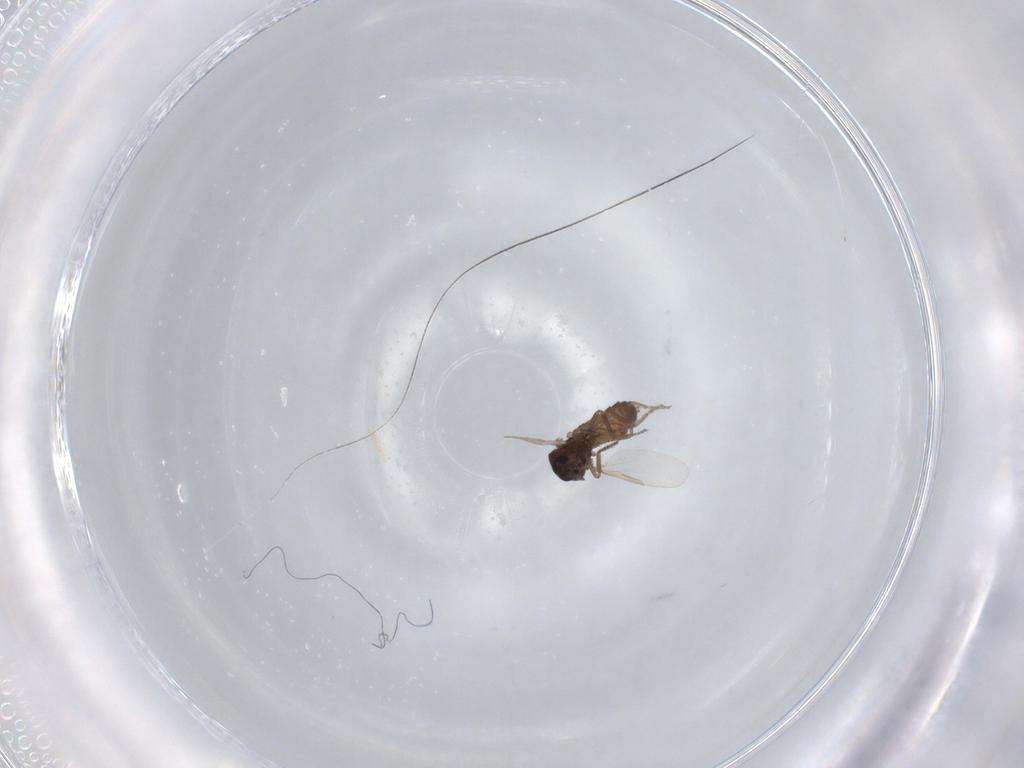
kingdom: Animalia
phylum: Arthropoda
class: Insecta
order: Diptera
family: Ceratopogonidae
